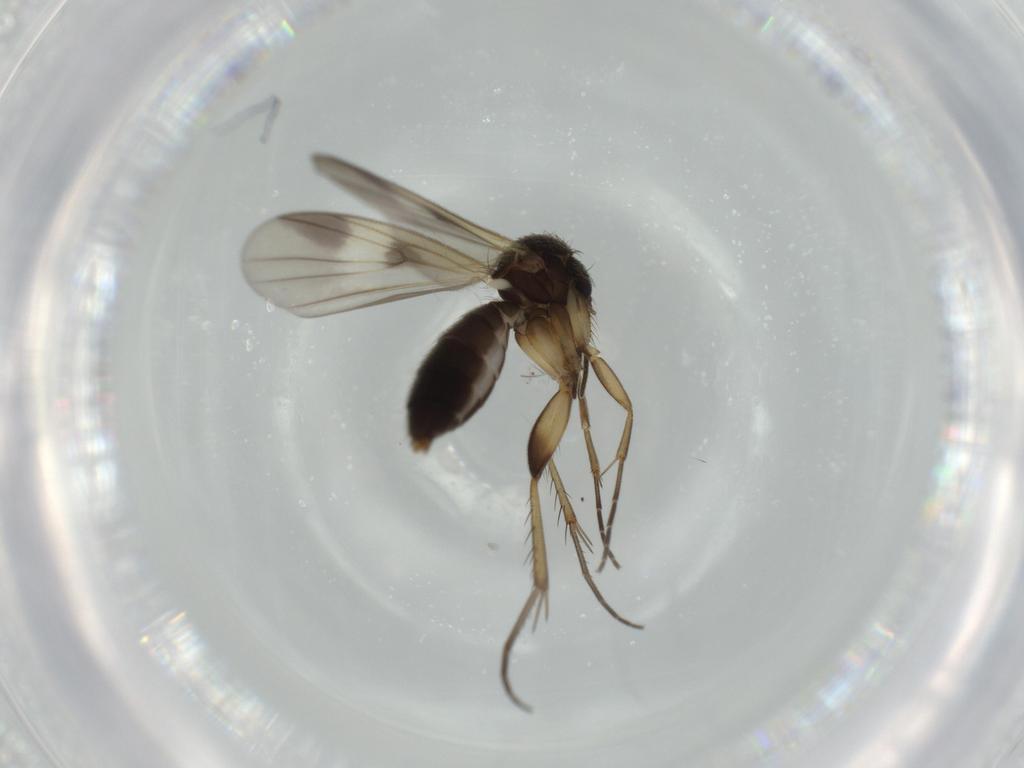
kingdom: Animalia
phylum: Arthropoda
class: Insecta
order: Diptera
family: Mycetophilidae
